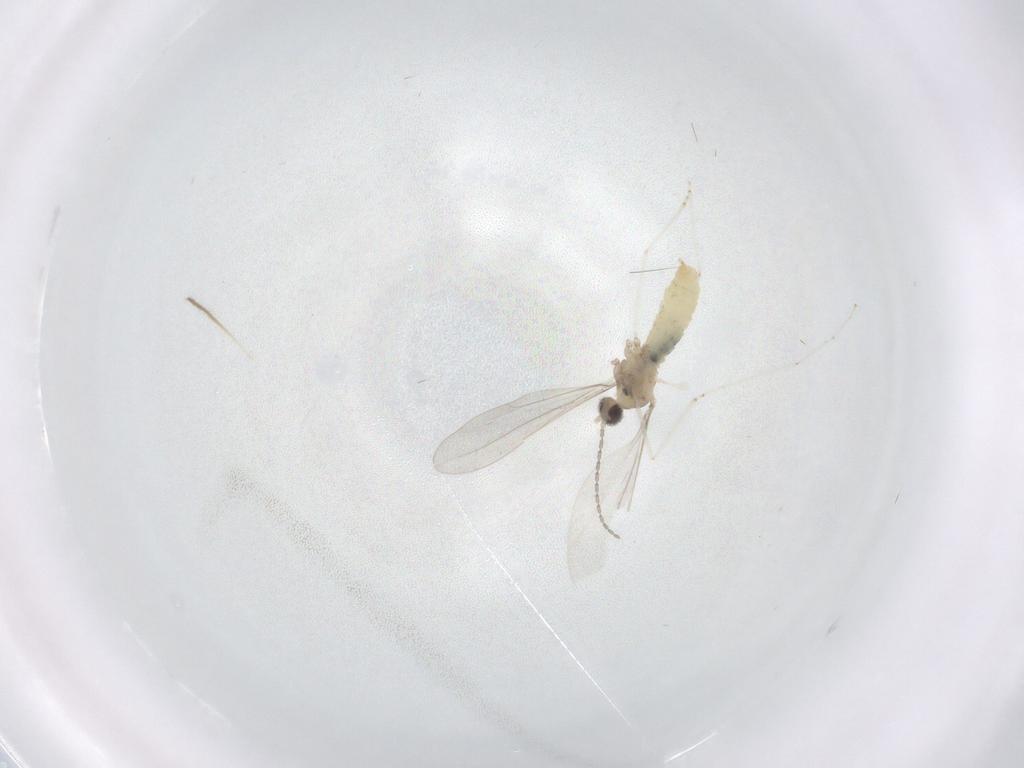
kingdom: Animalia
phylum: Arthropoda
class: Insecta
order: Diptera
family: Cecidomyiidae
